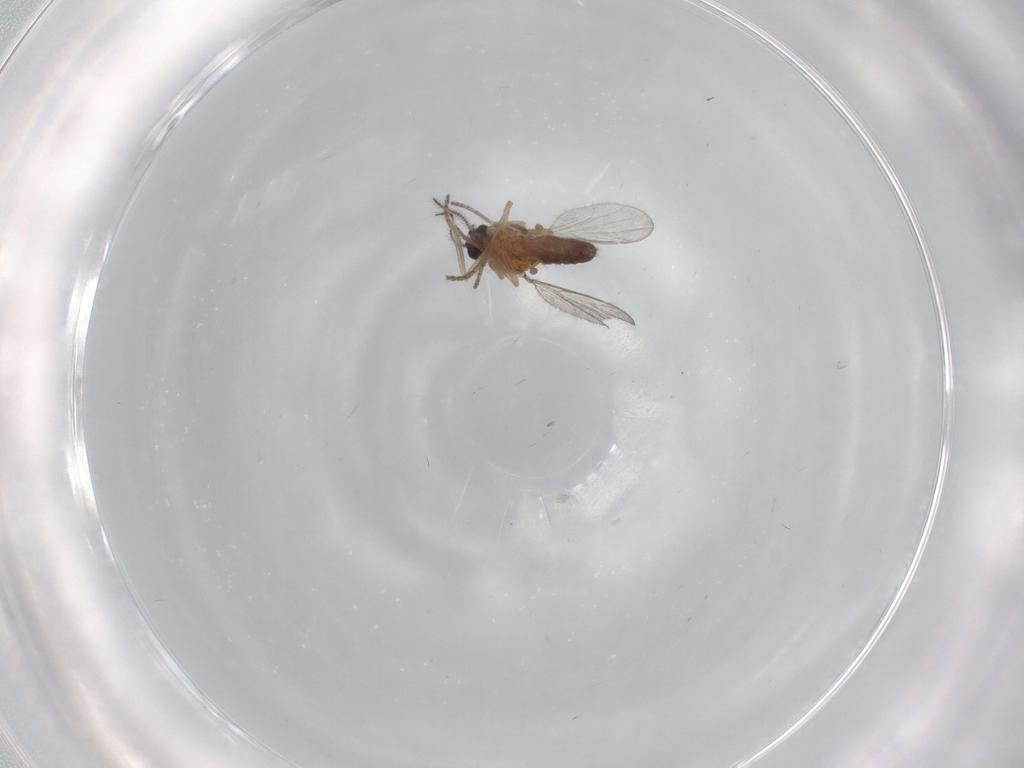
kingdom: Animalia
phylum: Arthropoda
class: Insecta
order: Diptera
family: Ceratopogonidae
